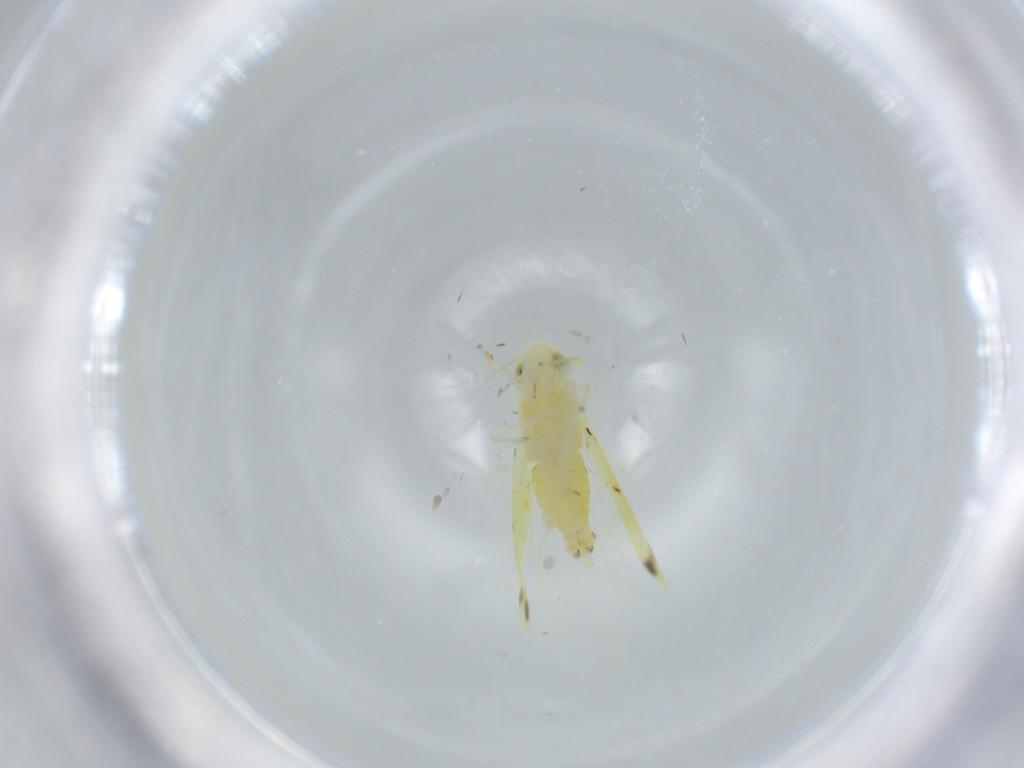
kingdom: Animalia
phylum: Arthropoda
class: Insecta
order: Hemiptera
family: Cicadellidae
